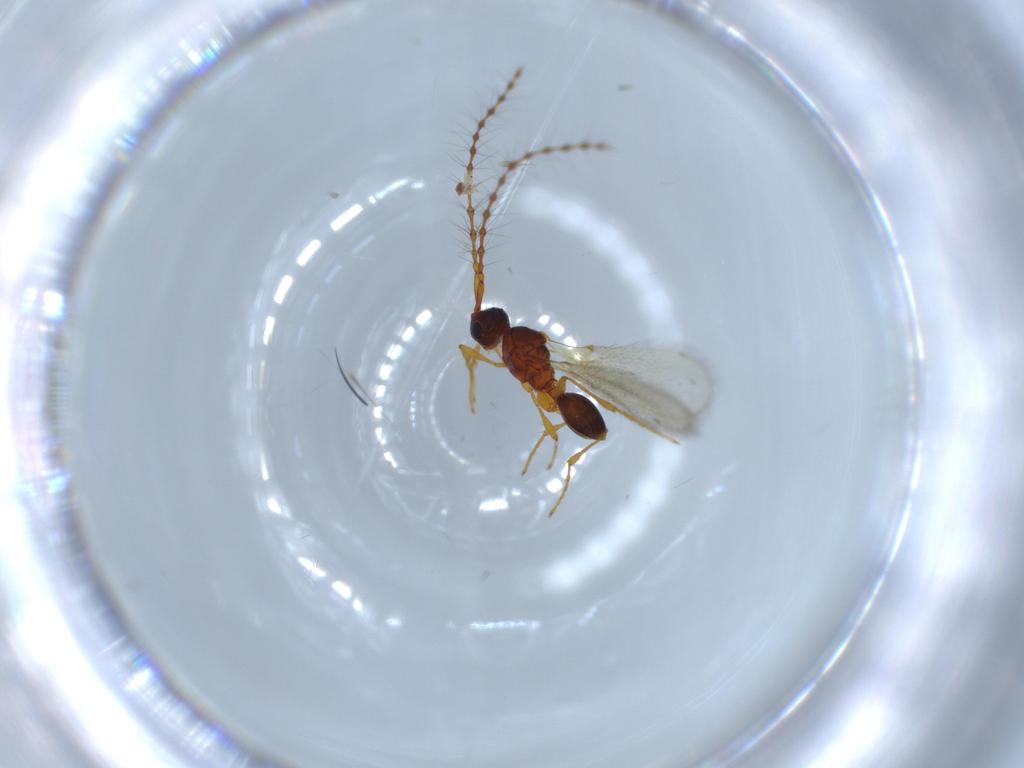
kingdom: Animalia
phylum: Arthropoda
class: Insecta
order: Hymenoptera
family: Diapriidae
